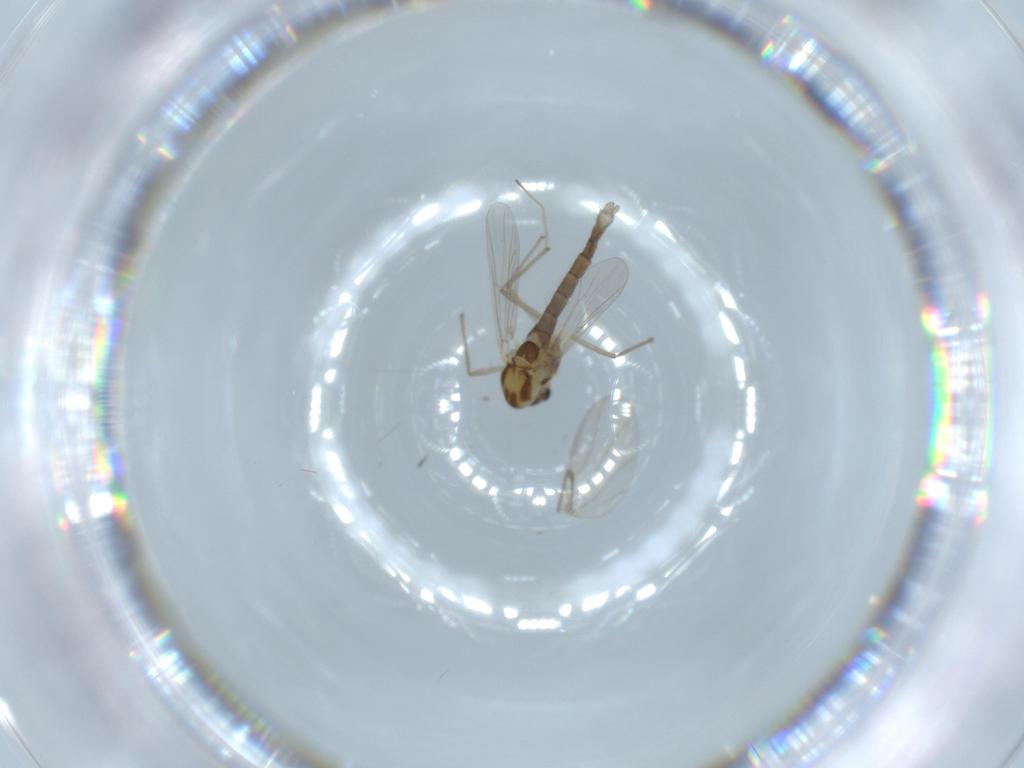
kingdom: Animalia
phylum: Arthropoda
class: Insecta
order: Diptera
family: Chironomidae
